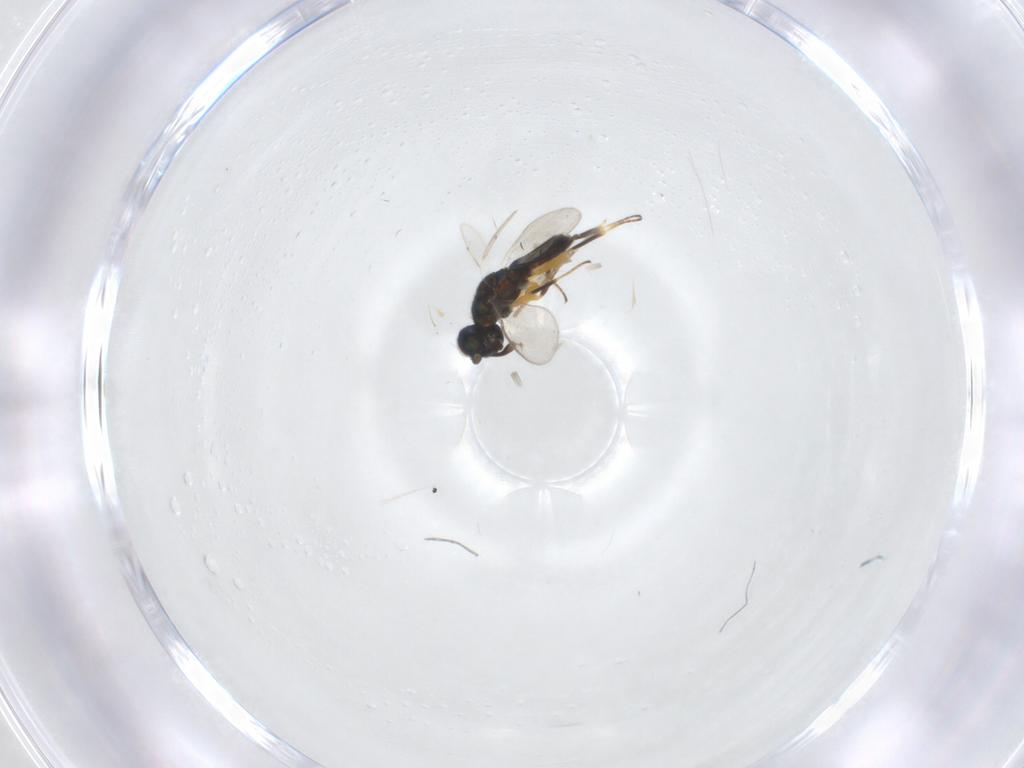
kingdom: Animalia
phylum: Arthropoda
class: Insecta
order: Hymenoptera
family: Eupelmidae
